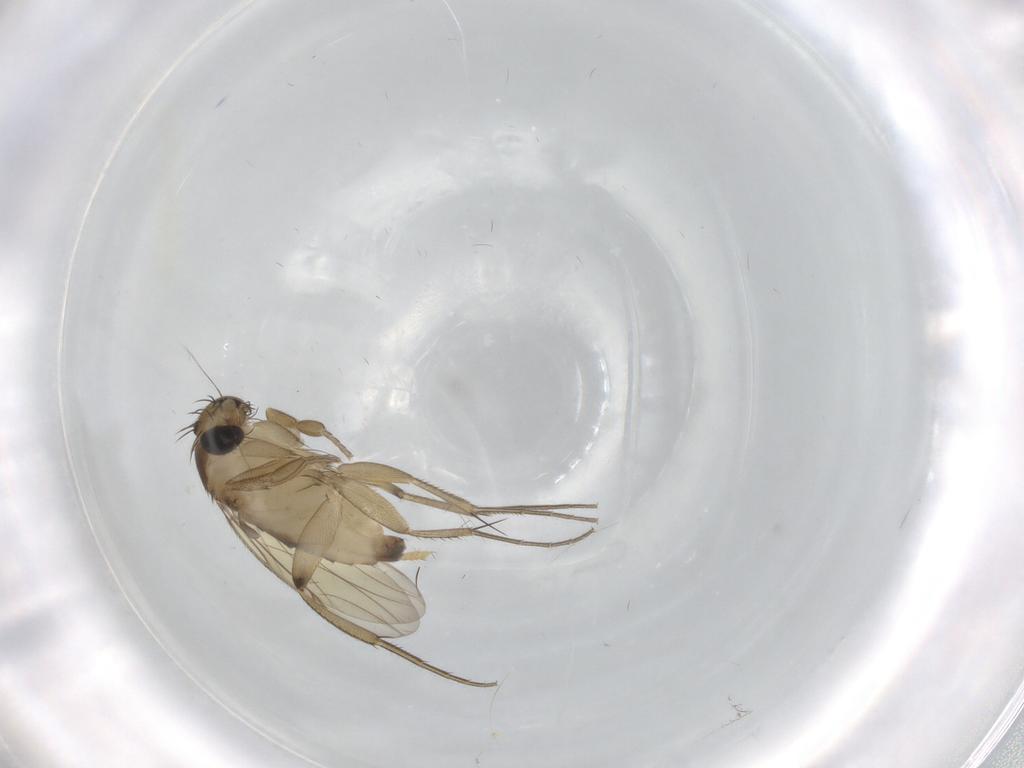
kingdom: Animalia
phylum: Arthropoda
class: Insecta
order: Diptera
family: Phoridae
